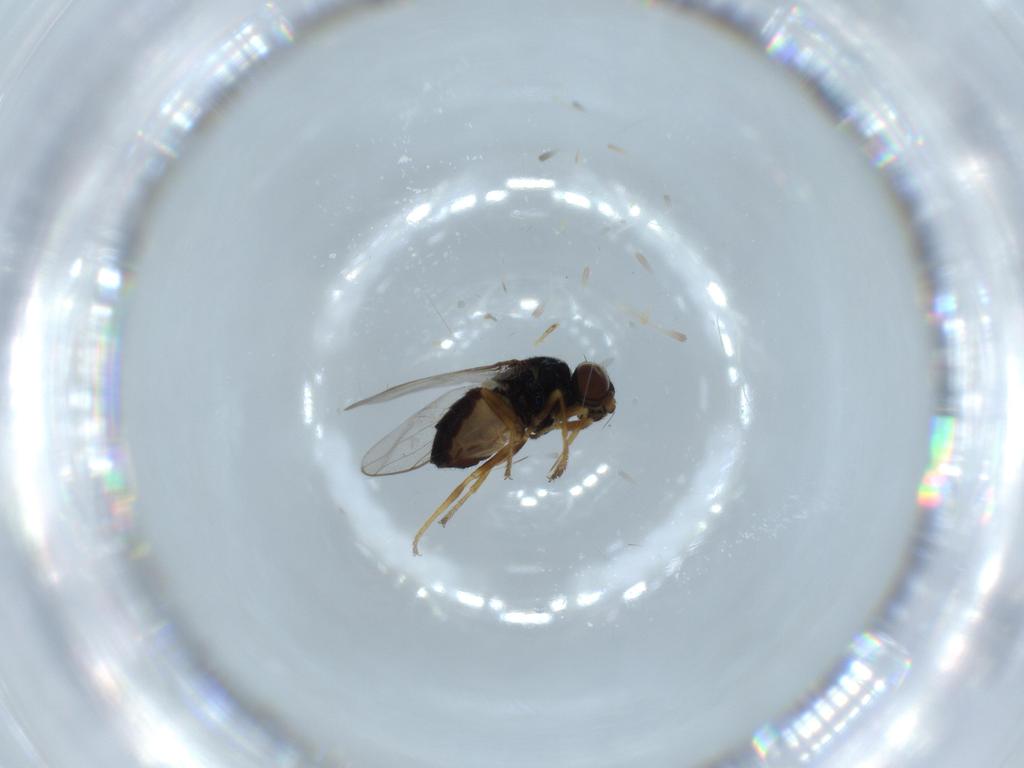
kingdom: Animalia
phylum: Arthropoda
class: Insecta
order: Diptera
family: Chloropidae
